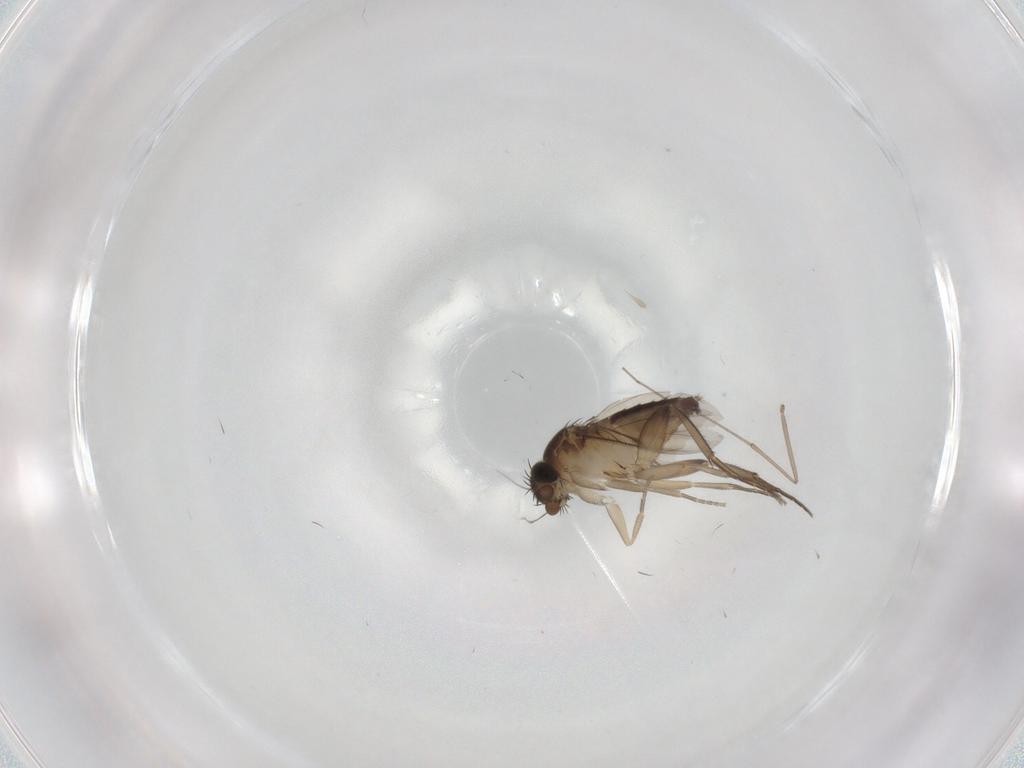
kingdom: Animalia
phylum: Arthropoda
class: Insecta
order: Diptera
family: Phoridae
